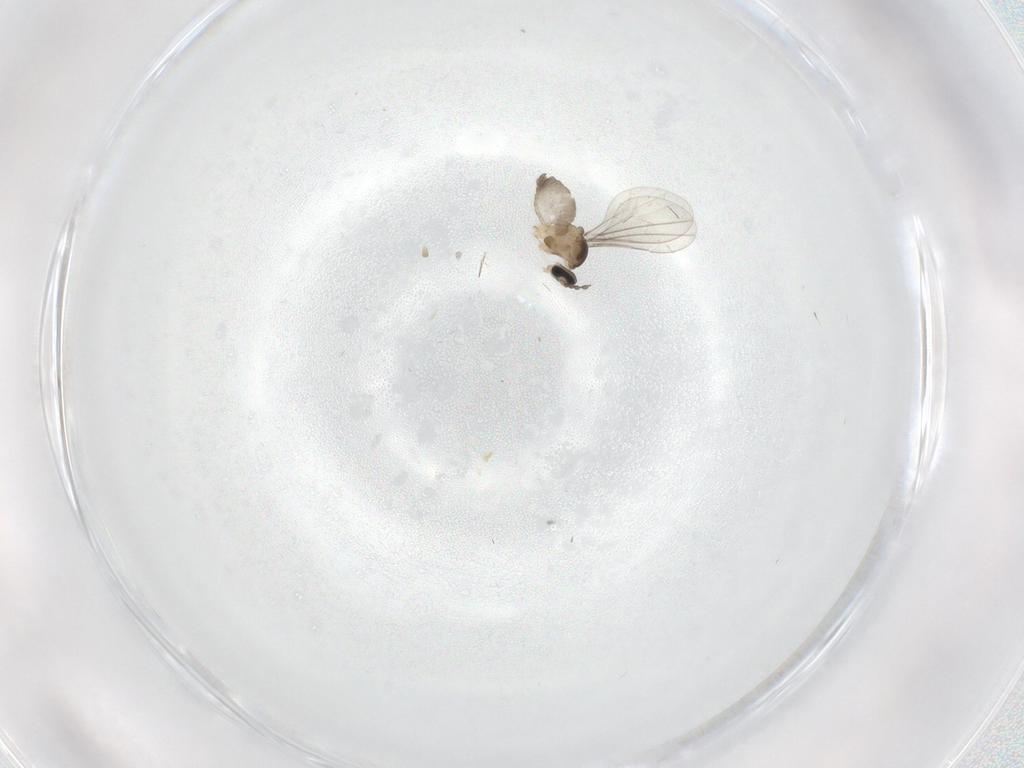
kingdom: Animalia
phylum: Arthropoda
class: Insecta
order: Diptera
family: Cecidomyiidae
